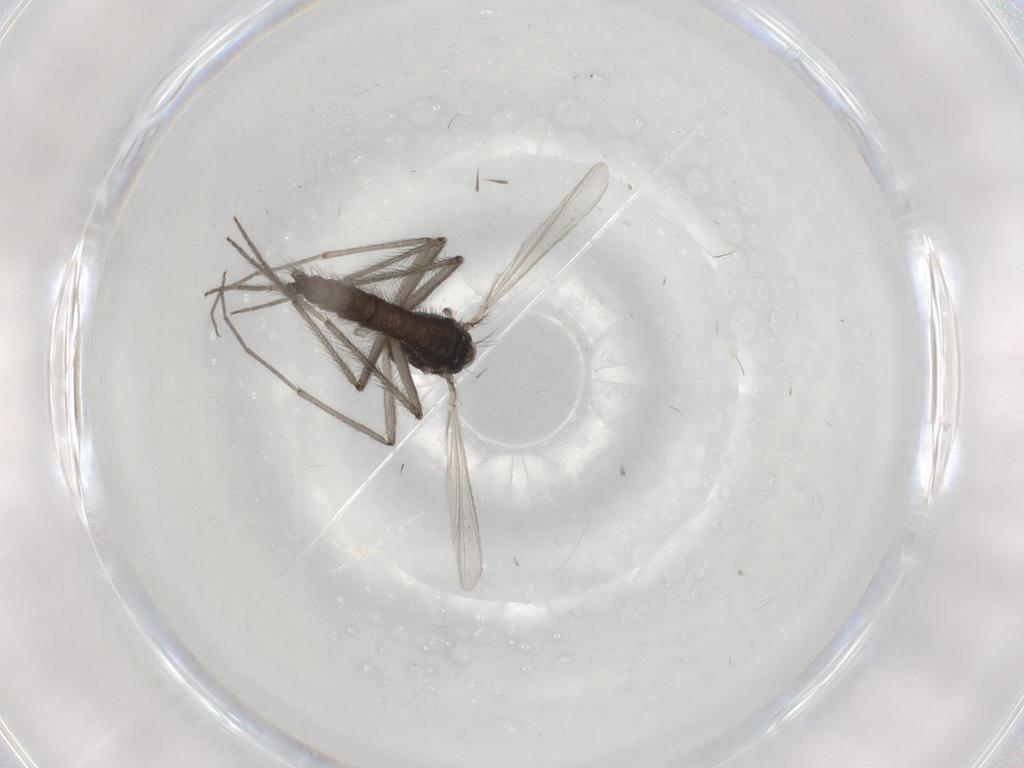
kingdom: Animalia
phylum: Arthropoda
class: Insecta
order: Diptera
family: Chironomidae
